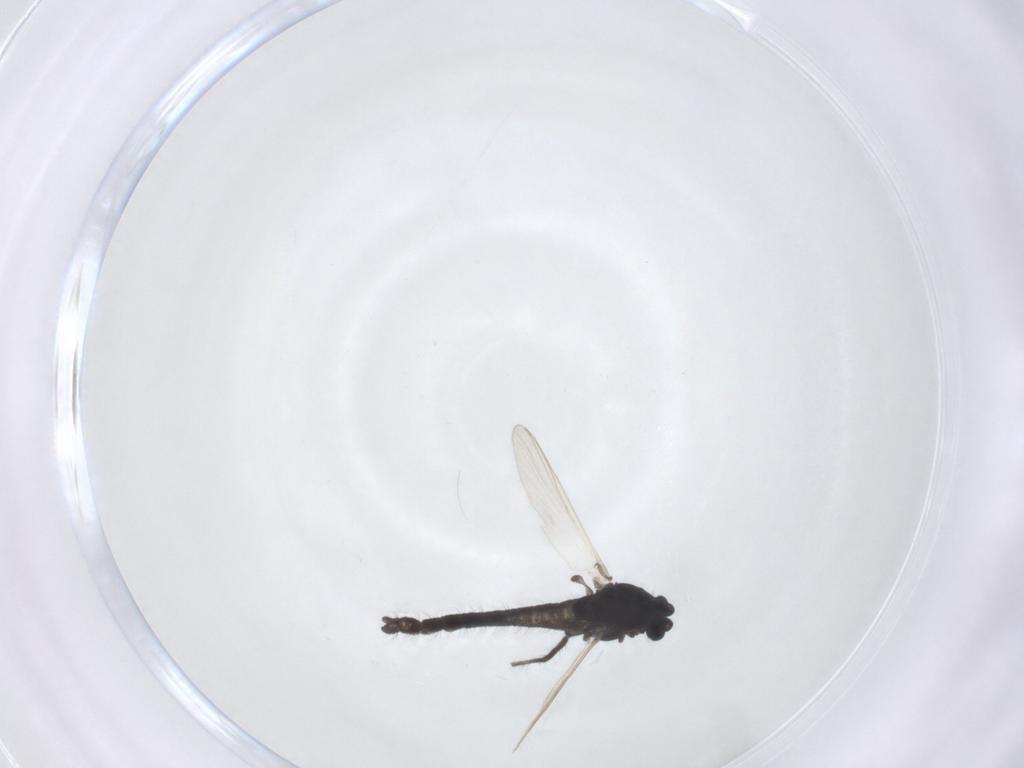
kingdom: Animalia
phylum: Arthropoda
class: Insecta
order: Diptera
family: Chironomidae
